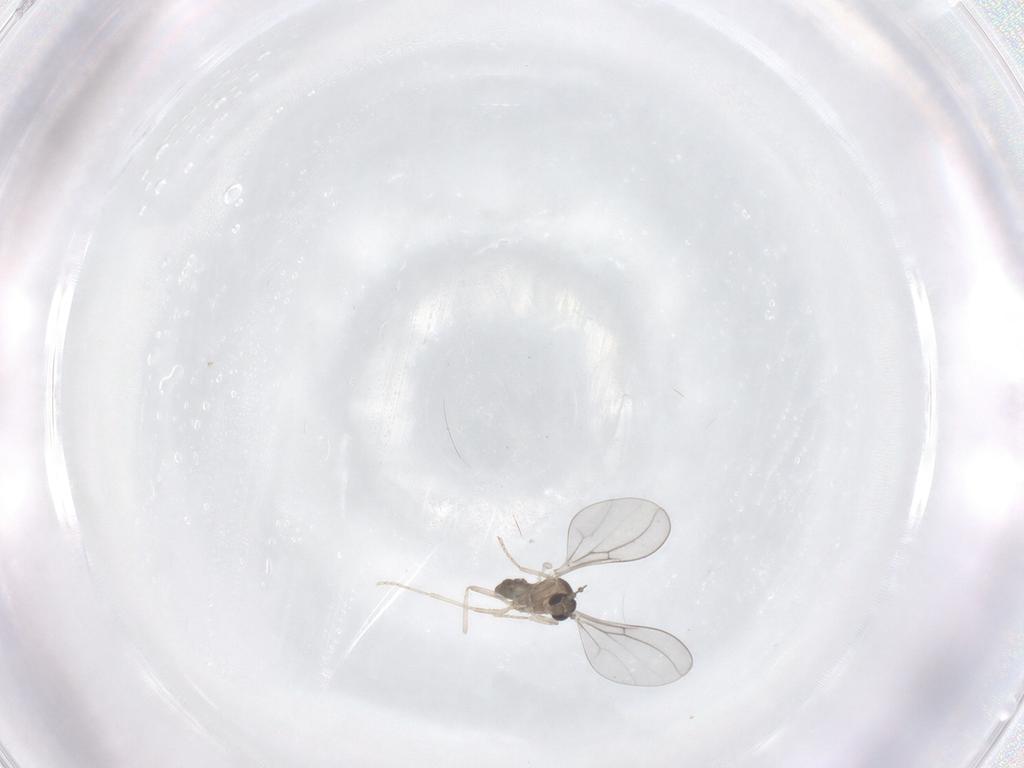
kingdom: Animalia
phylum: Arthropoda
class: Insecta
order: Diptera
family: Cecidomyiidae
